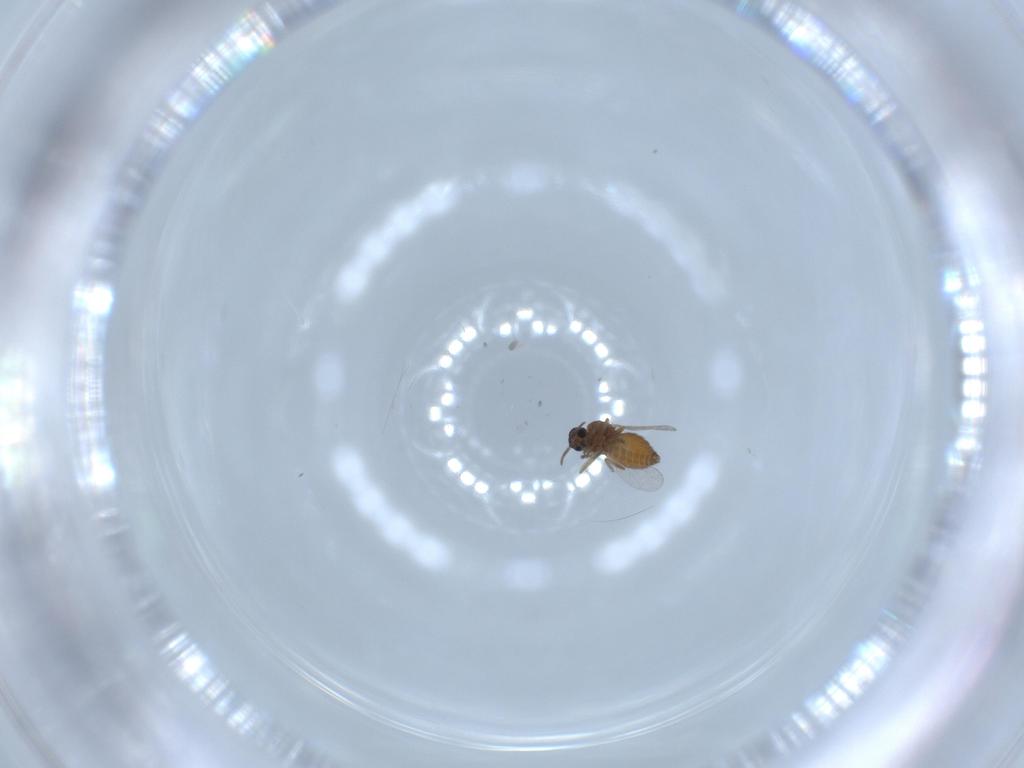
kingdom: Animalia
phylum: Arthropoda
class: Insecta
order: Diptera
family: Ceratopogonidae
